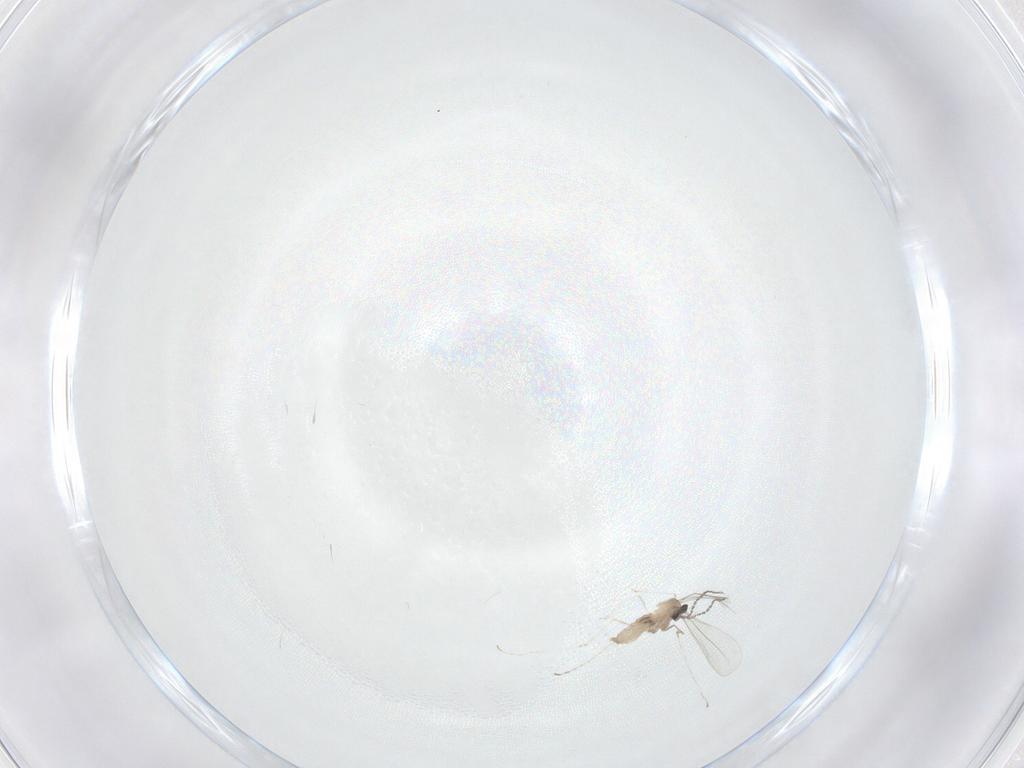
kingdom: Animalia
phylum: Arthropoda
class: Insecta
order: Diptera
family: Cecidomyiidae
